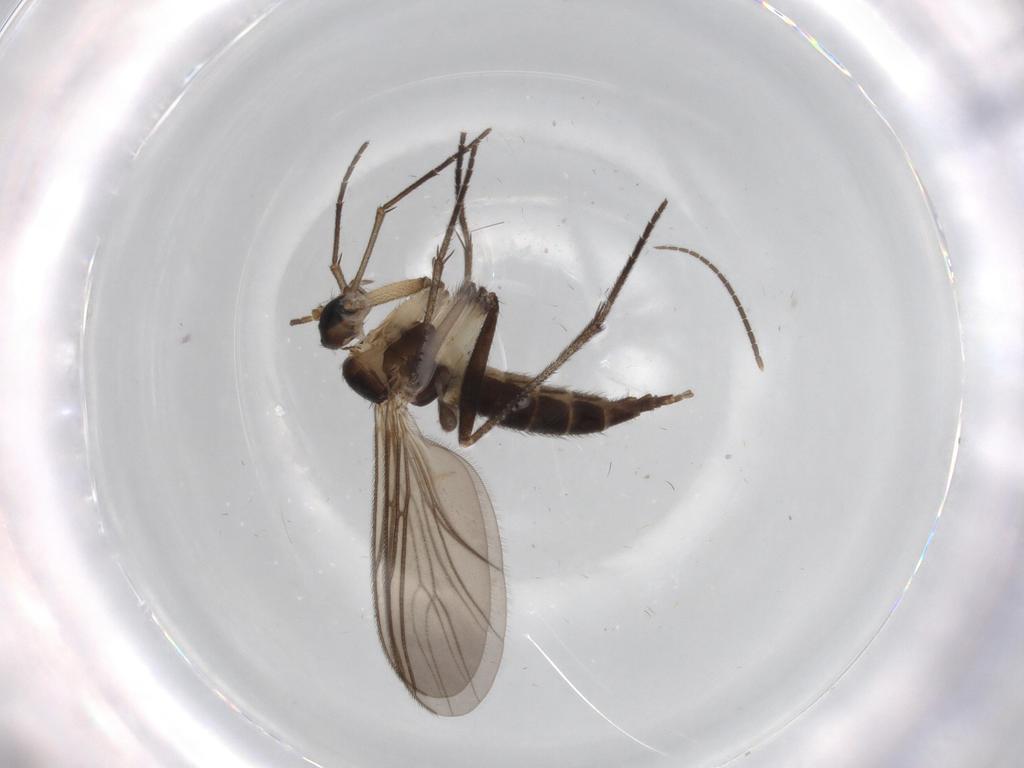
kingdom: Animalia
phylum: Arthropoda
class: Insecta
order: Diptera
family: Sciaridae
